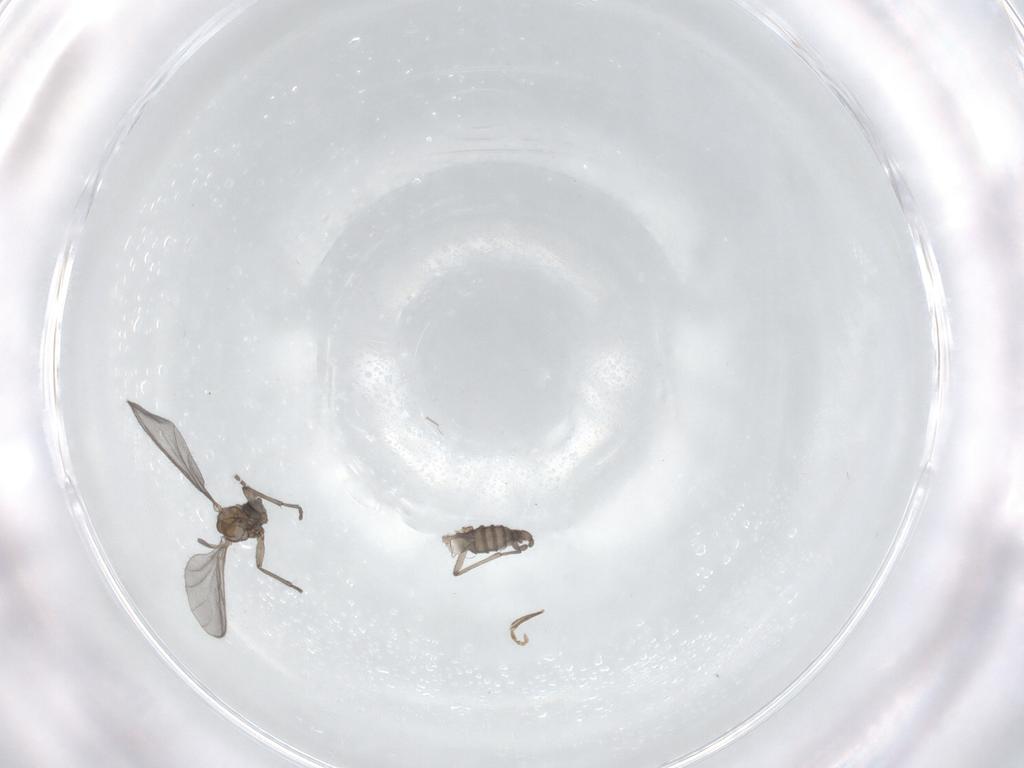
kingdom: Animalia
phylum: Arthropoda
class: Insecta
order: Diptera
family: Sciaridae
